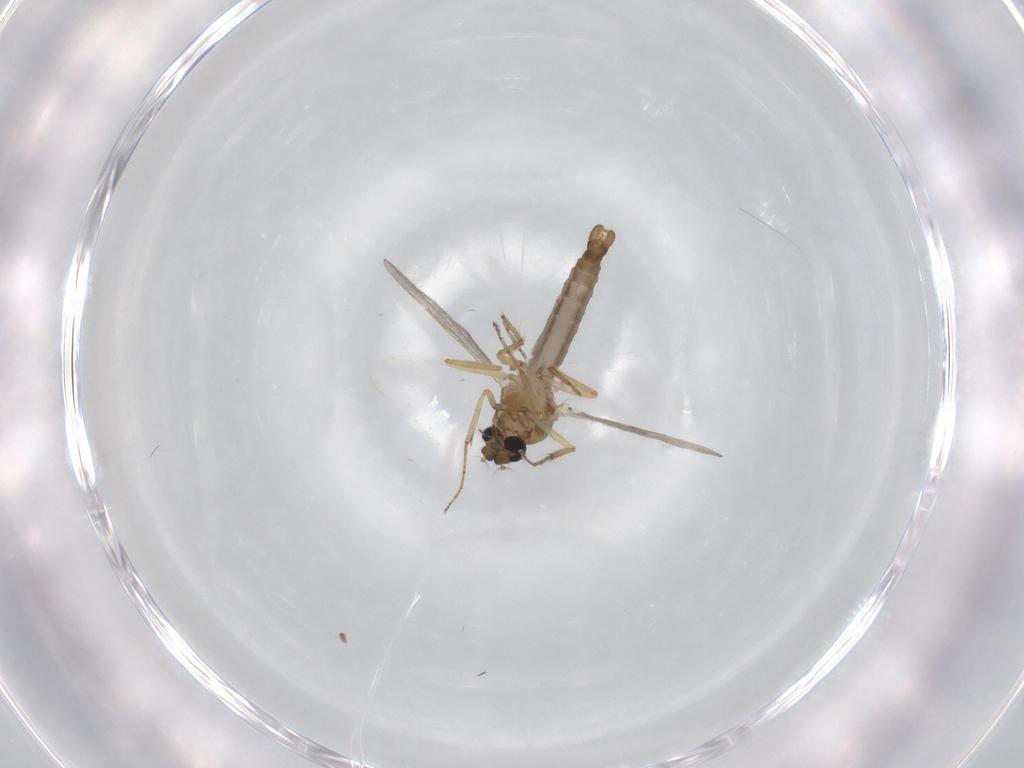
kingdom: Animalia
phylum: Arthropoda
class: Insecta
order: Diptera
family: Ceratopogonidae
